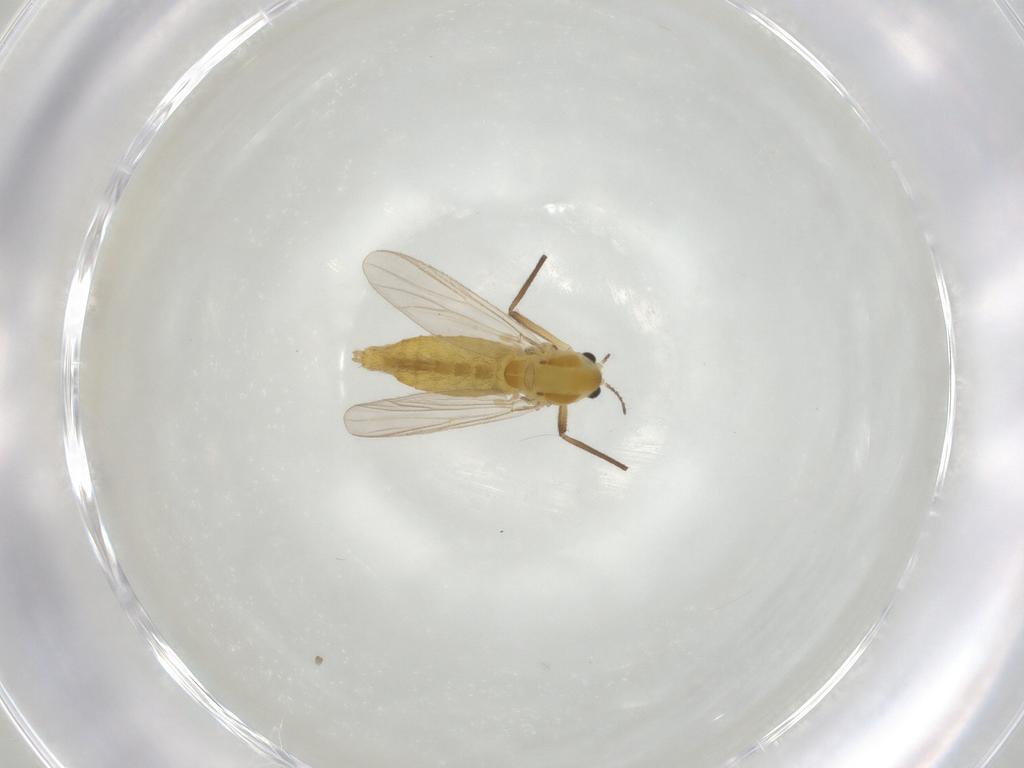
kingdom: Animalia
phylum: Arthropoda
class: Insecta
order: Diptera
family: Chironomidae
